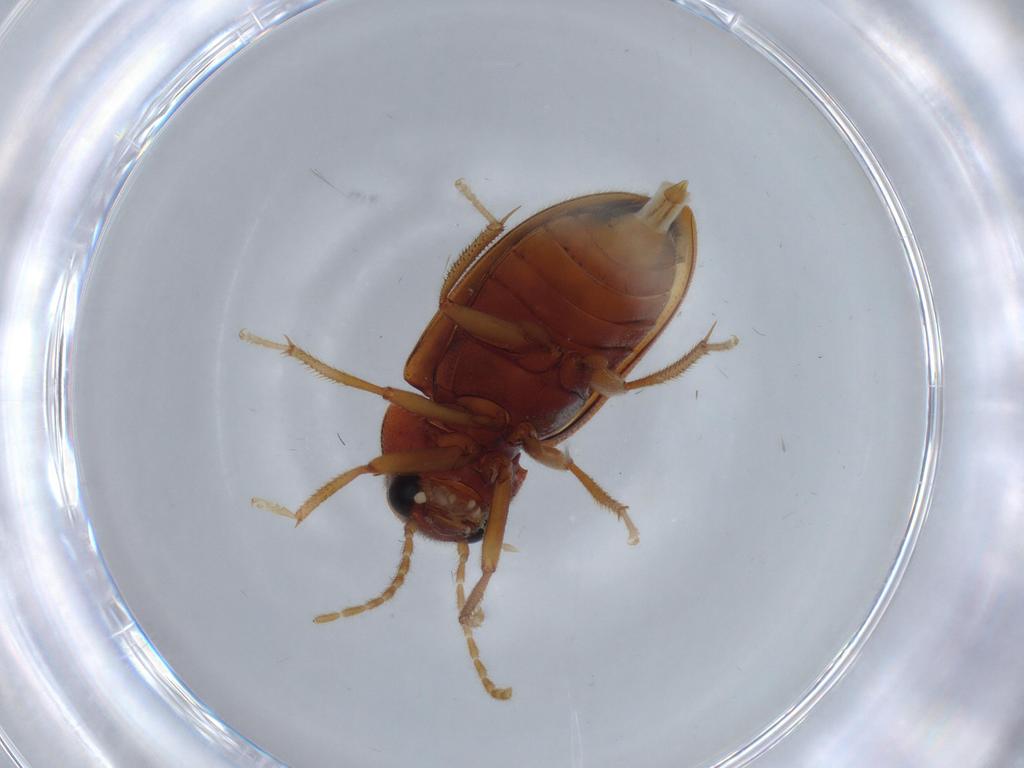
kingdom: Animalia
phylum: Arthropoda
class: Insecta
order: Coleoptera
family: Ptilodactylidae
